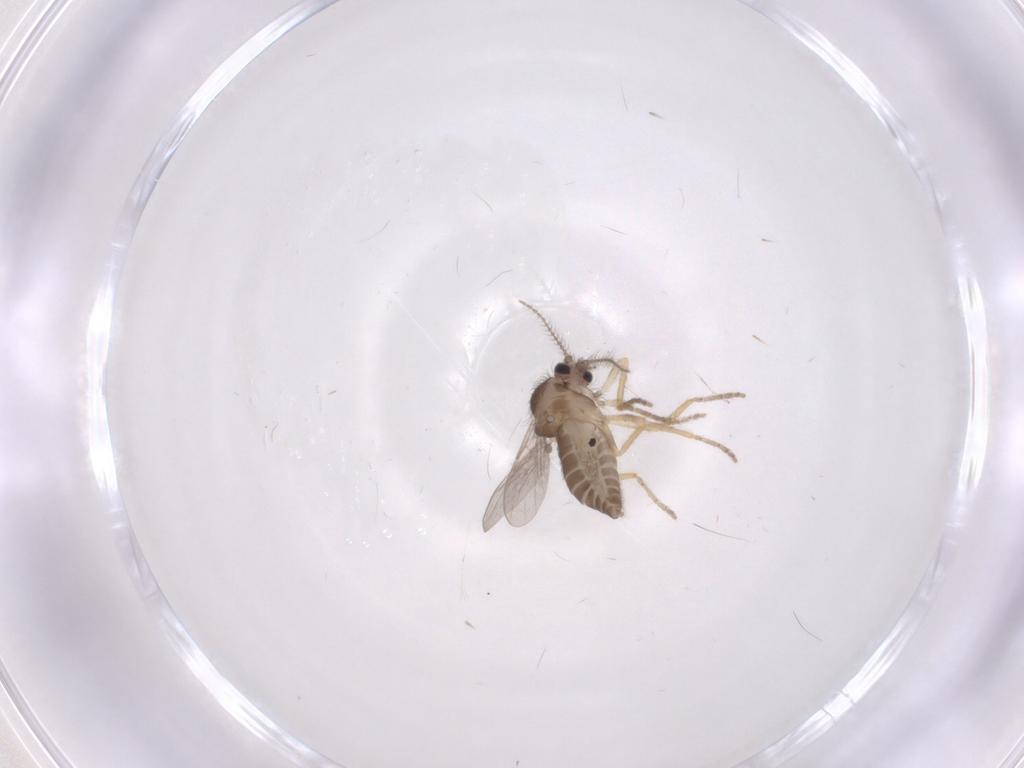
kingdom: Animalia
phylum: Arthropoda
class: Insecta
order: Diptera
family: Ceratopogonidae
